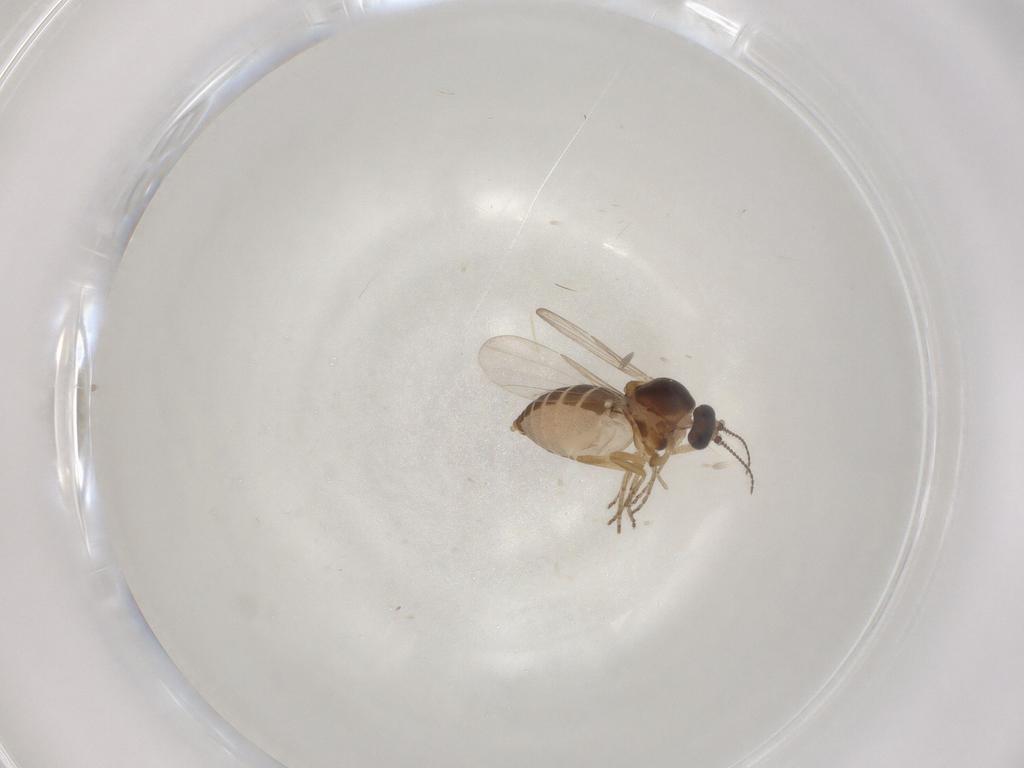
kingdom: Animalia
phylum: Arthropoda
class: Insecta
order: Diptera
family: Ceratopogonidae
